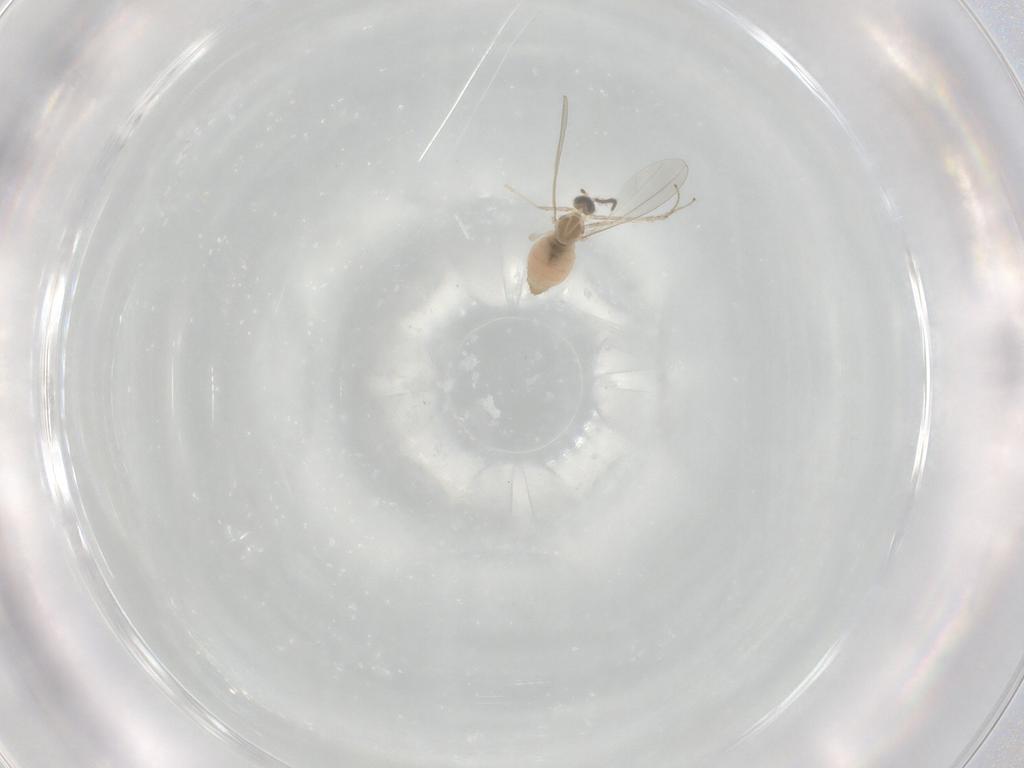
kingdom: Animalia
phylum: Arthropoda
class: Insecta
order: Diptera
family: Cecidomyiidae
